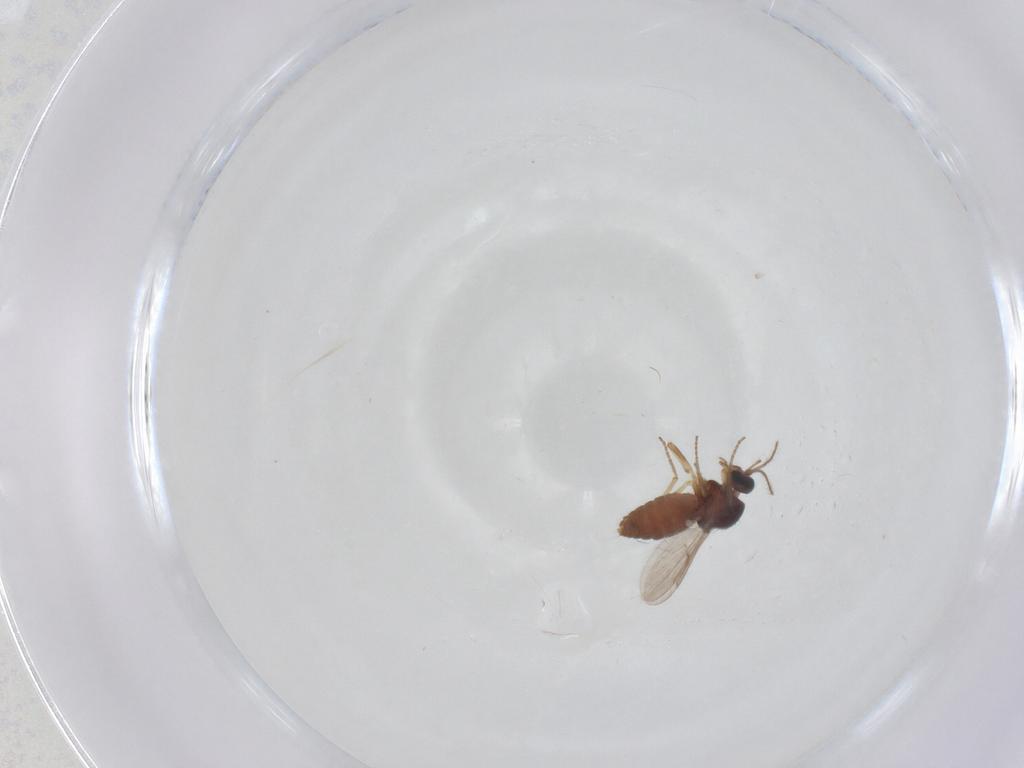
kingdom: Animalia
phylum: Arthropoda
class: Insecta
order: Diptera
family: Ceratopogonidae
